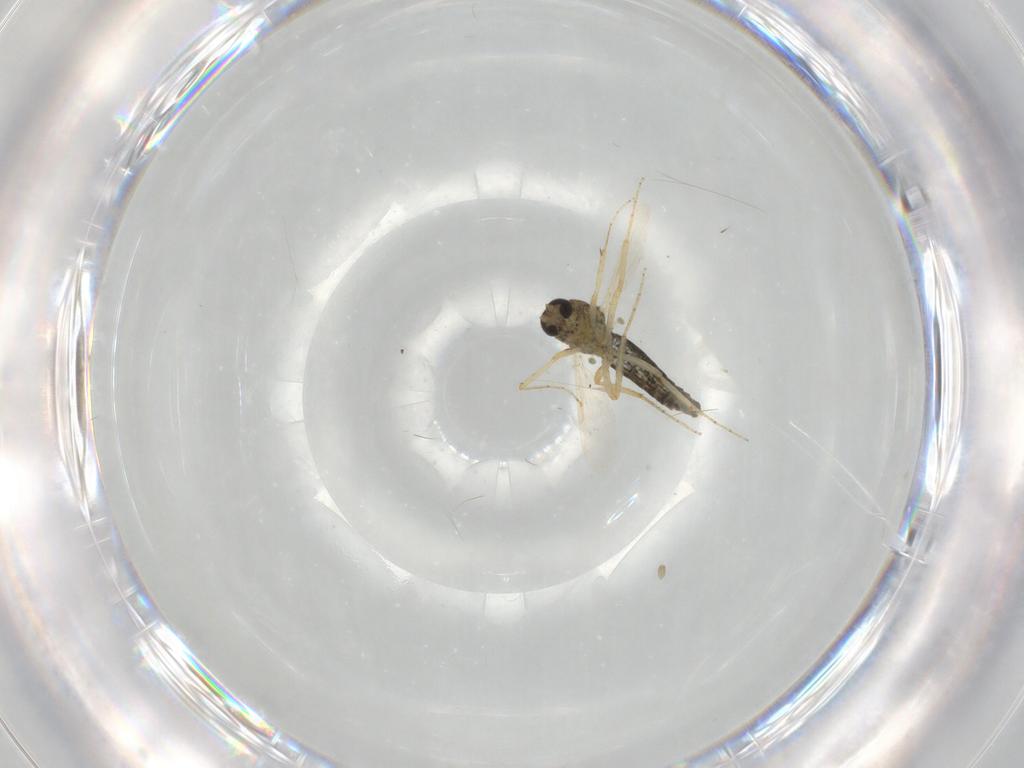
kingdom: Animalia
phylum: Arthropoda
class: Insecta
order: Diptera
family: Ceratopogonidae
